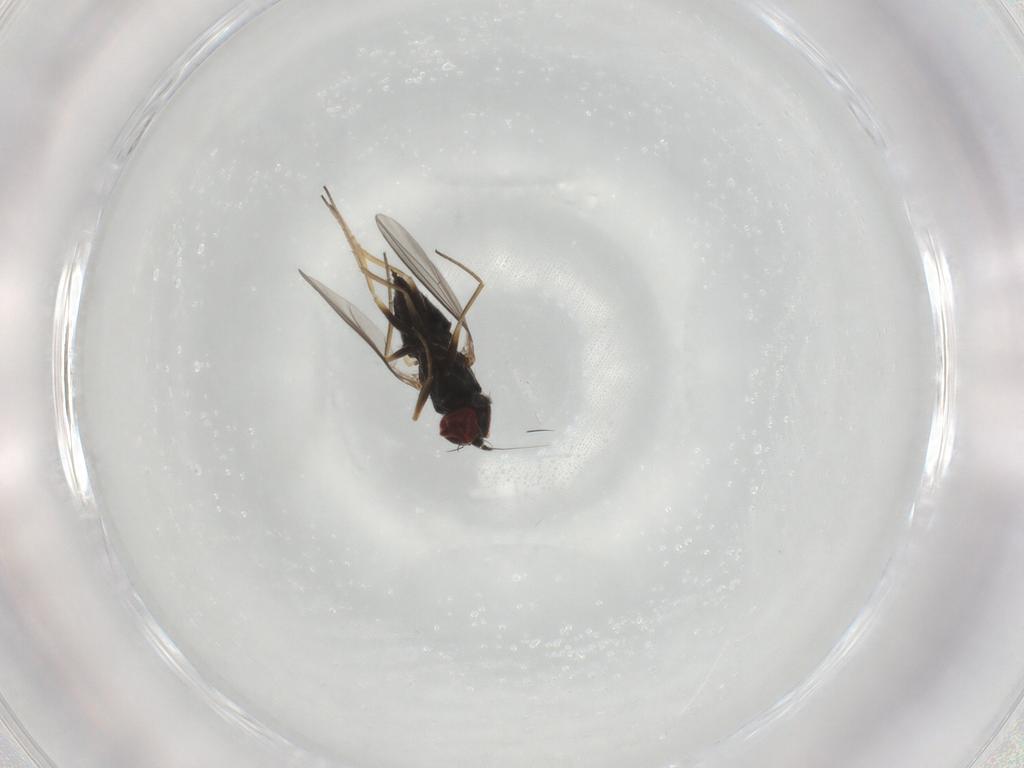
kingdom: Animalia
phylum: Arthropoda
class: Insecta
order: Diptera
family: Dolichopodidae
